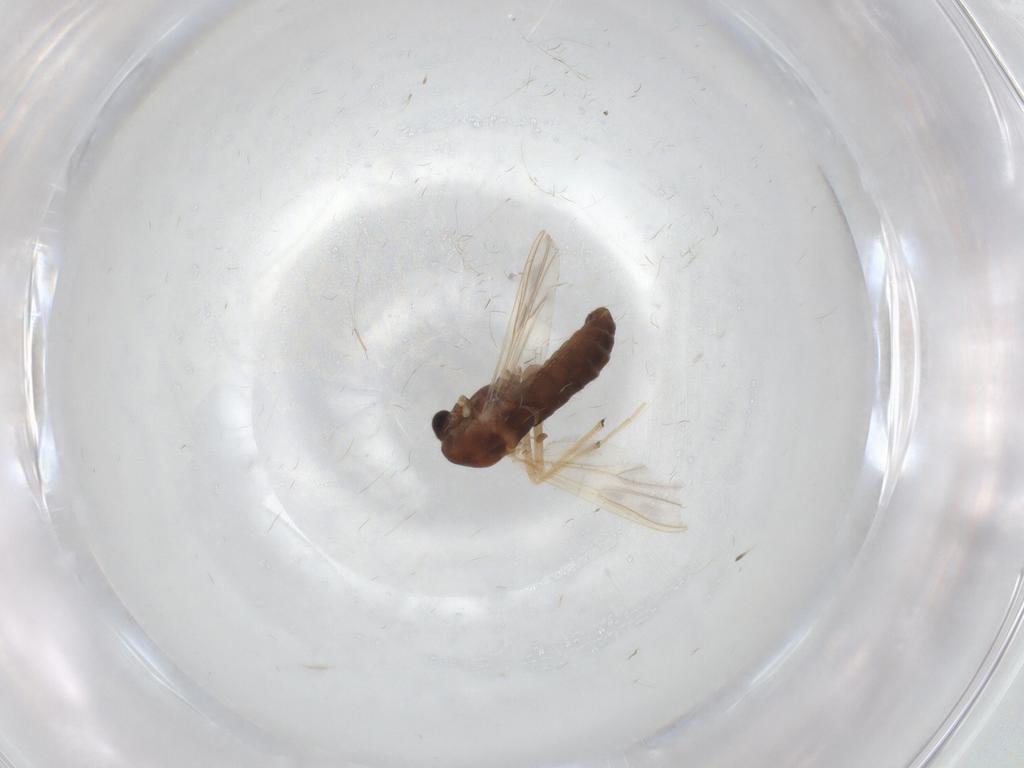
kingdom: Animalia
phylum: Arthropoda
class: Insecta
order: Diptera
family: Chironomidae
